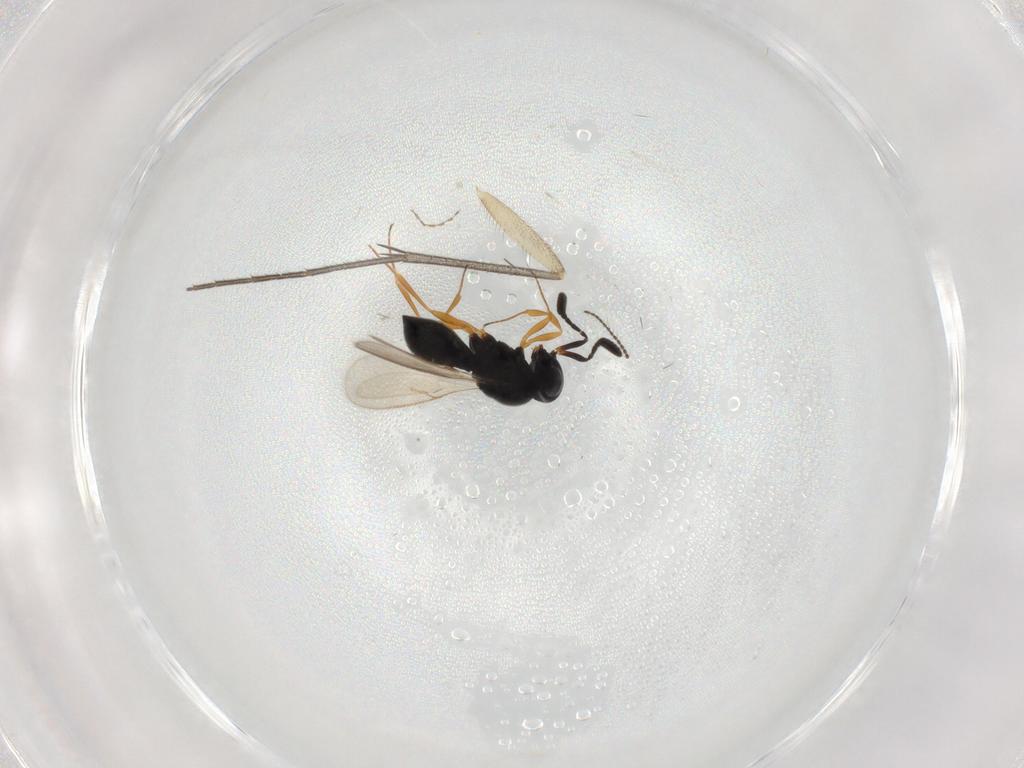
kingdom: Animalia
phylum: Arthropoda
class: Insecta
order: Hymenoptera
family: Scelionidae
